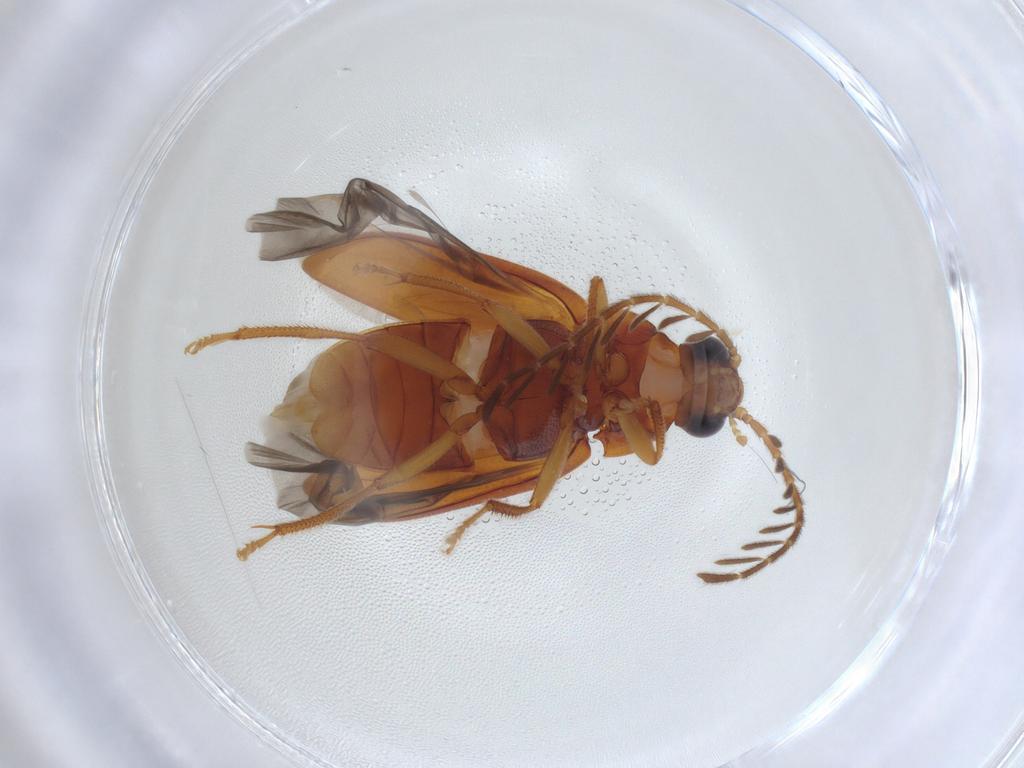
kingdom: Animalia
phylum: Arthropoda
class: Insecta
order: Coleoptera
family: Ptilodactylidae
